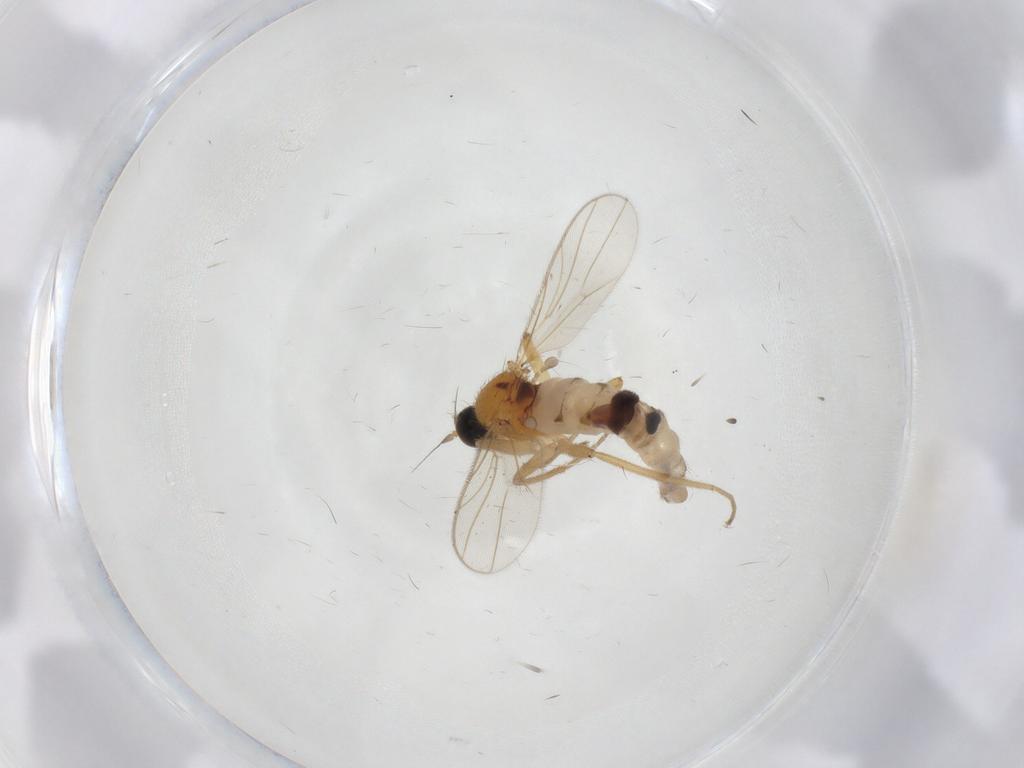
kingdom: Animalia
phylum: Arthropoda
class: Insecta
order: Diptera
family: Hybotidae
